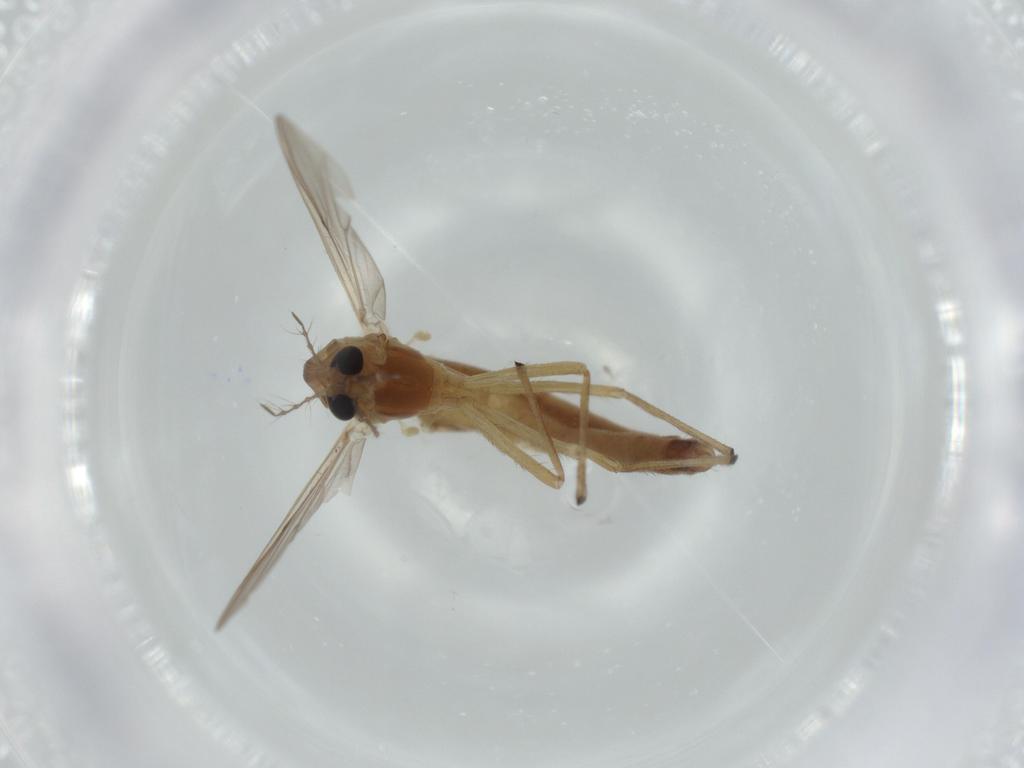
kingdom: Animalia
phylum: Arthropoda
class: Insecta
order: Diptera
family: Chironomidae
